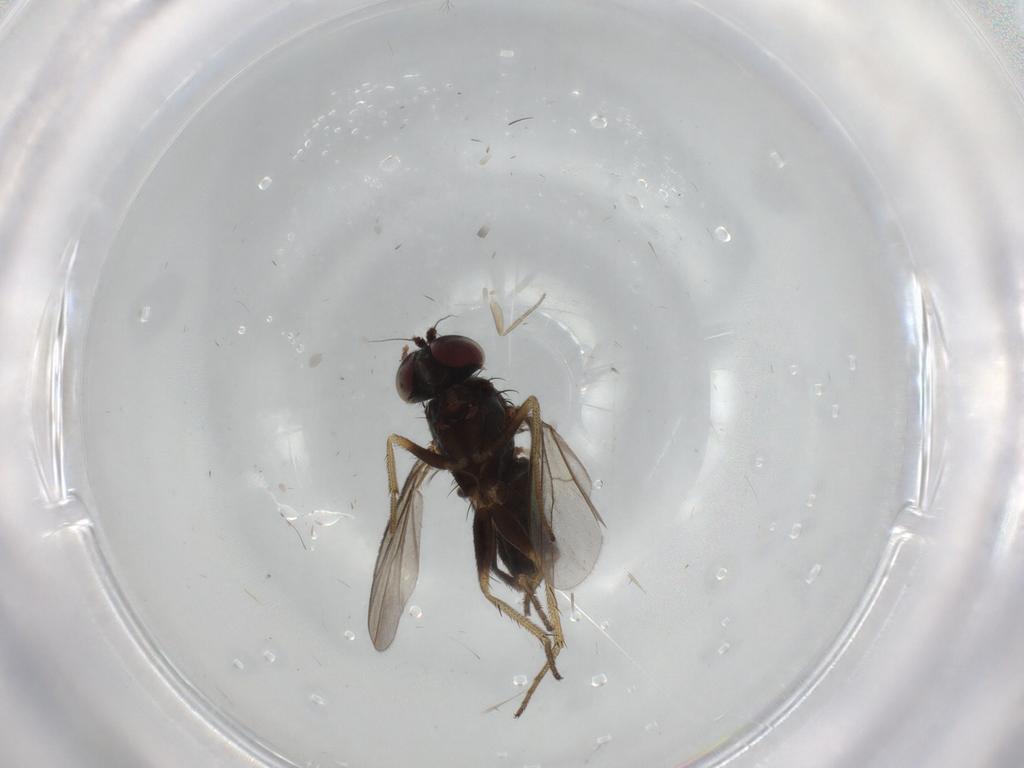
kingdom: Animalia
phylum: Arthropoda
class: Insecta
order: Diptera
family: Dolichopodidae
